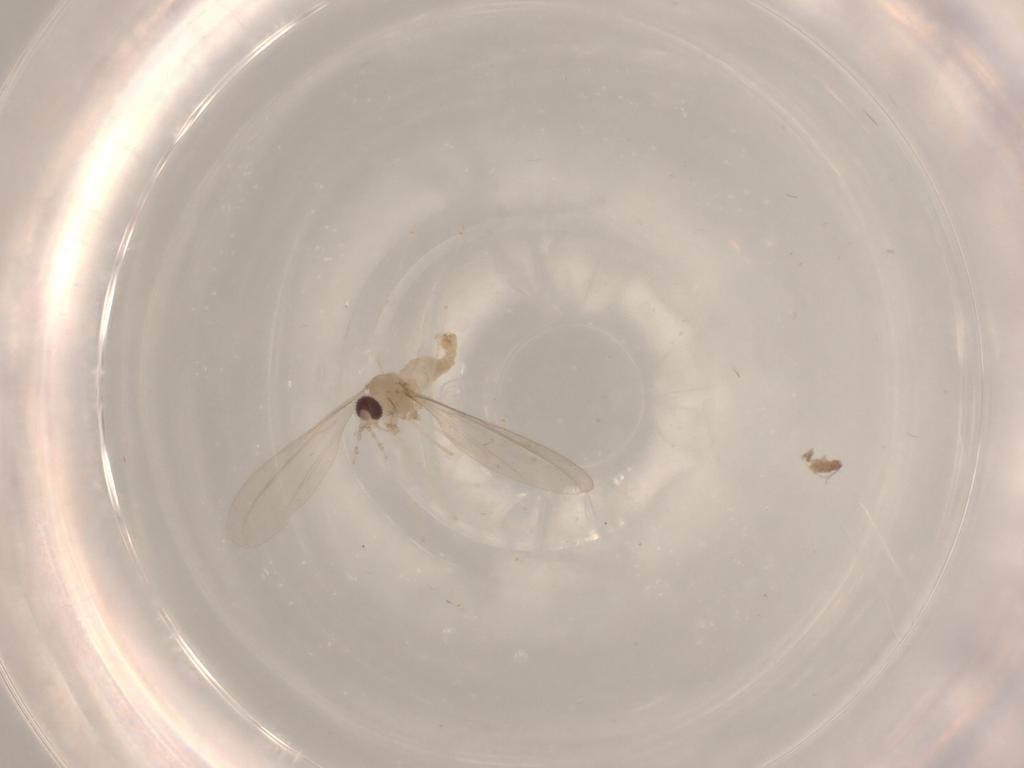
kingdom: Animalia
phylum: Arthropoda
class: Insecta
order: Diptera
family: Cecidomyiidae
